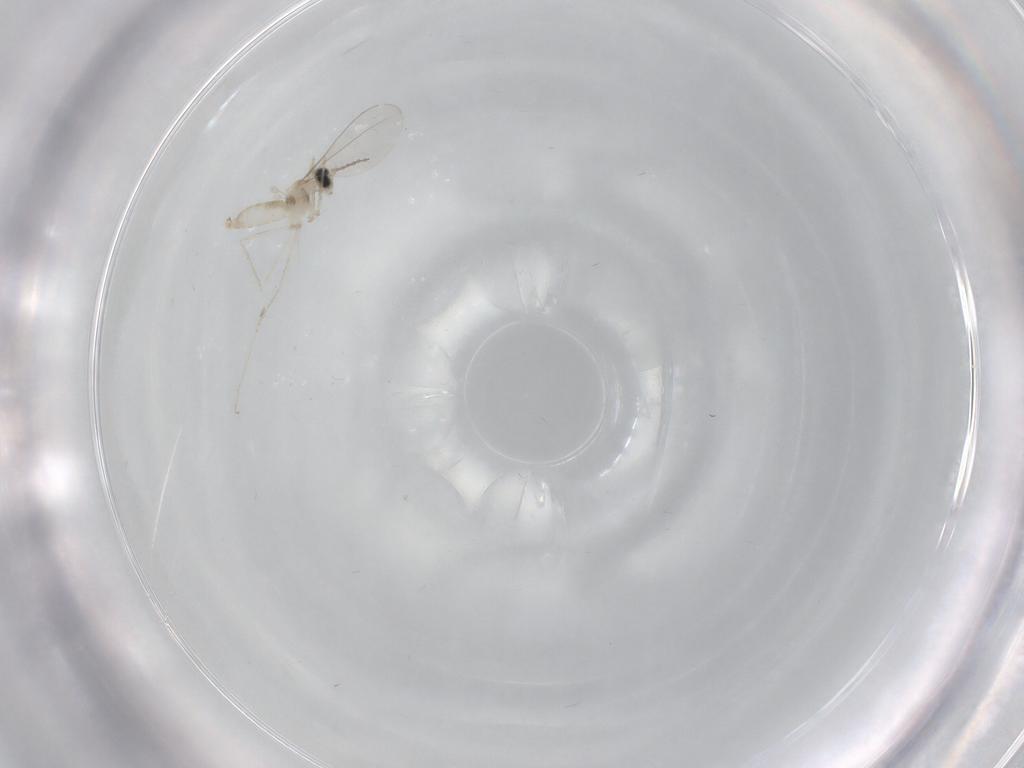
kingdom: Animalia
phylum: Arthropoda
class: Insecta
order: Diptera
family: Cecidomyiidae
